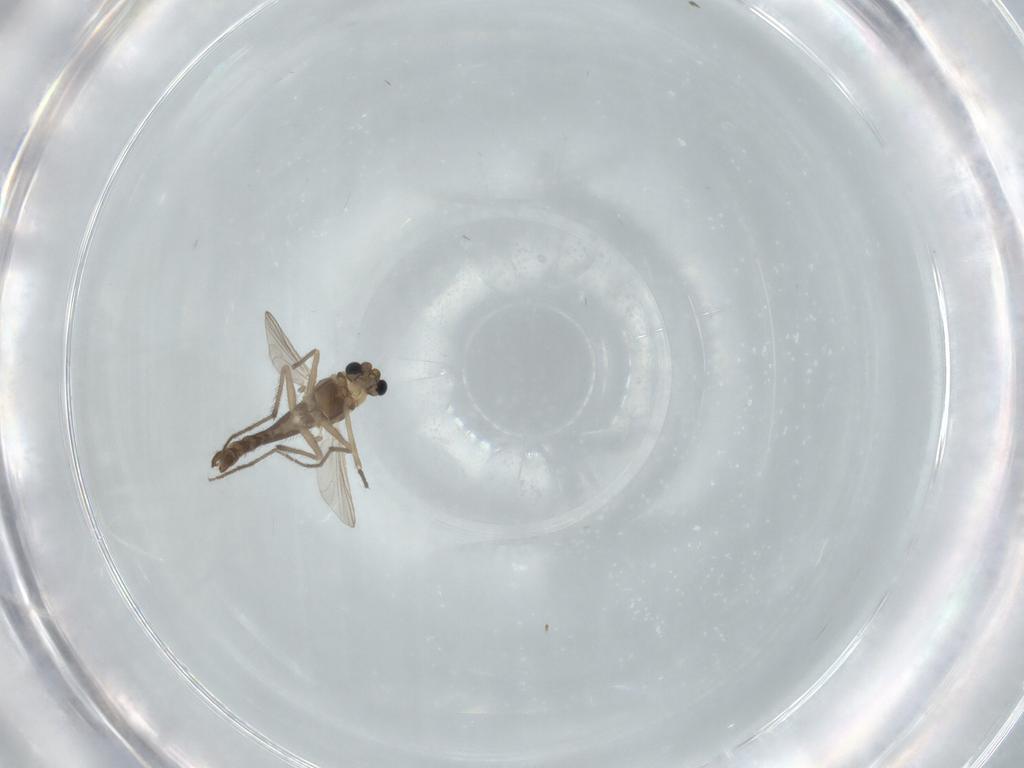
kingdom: Animalia
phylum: Arthropoda
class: Insecta
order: Diptera
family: Chironomidae
